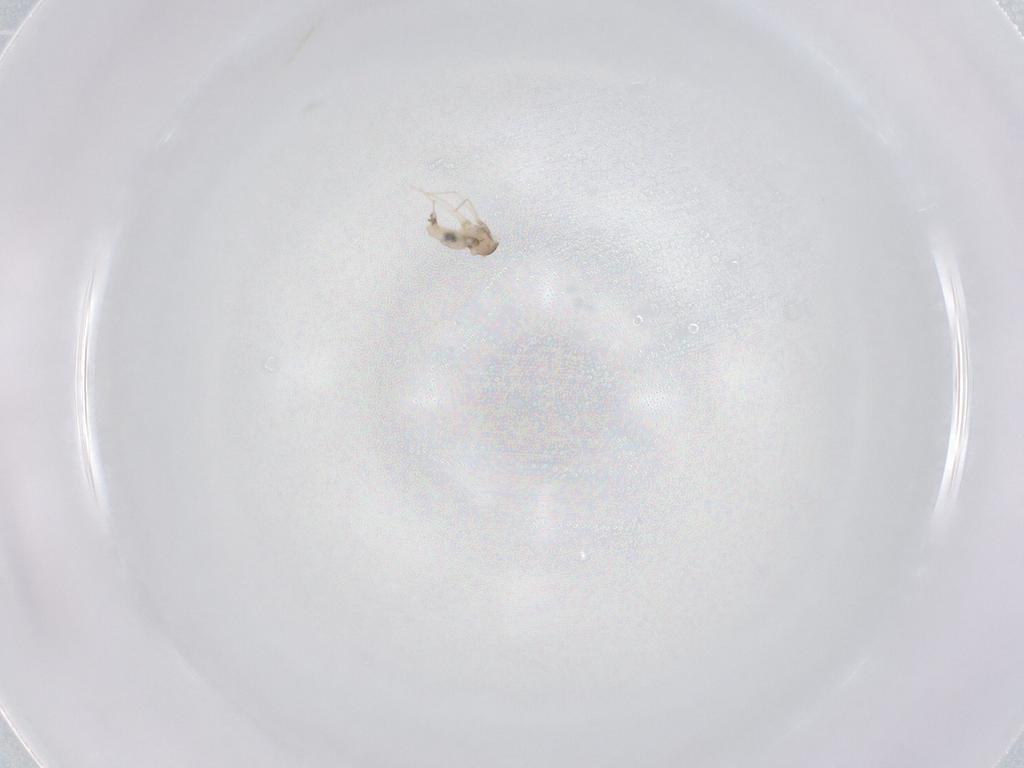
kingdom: Animalia
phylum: Arthropoda
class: Insecta
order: Diptera
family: Cecidomyiidae
